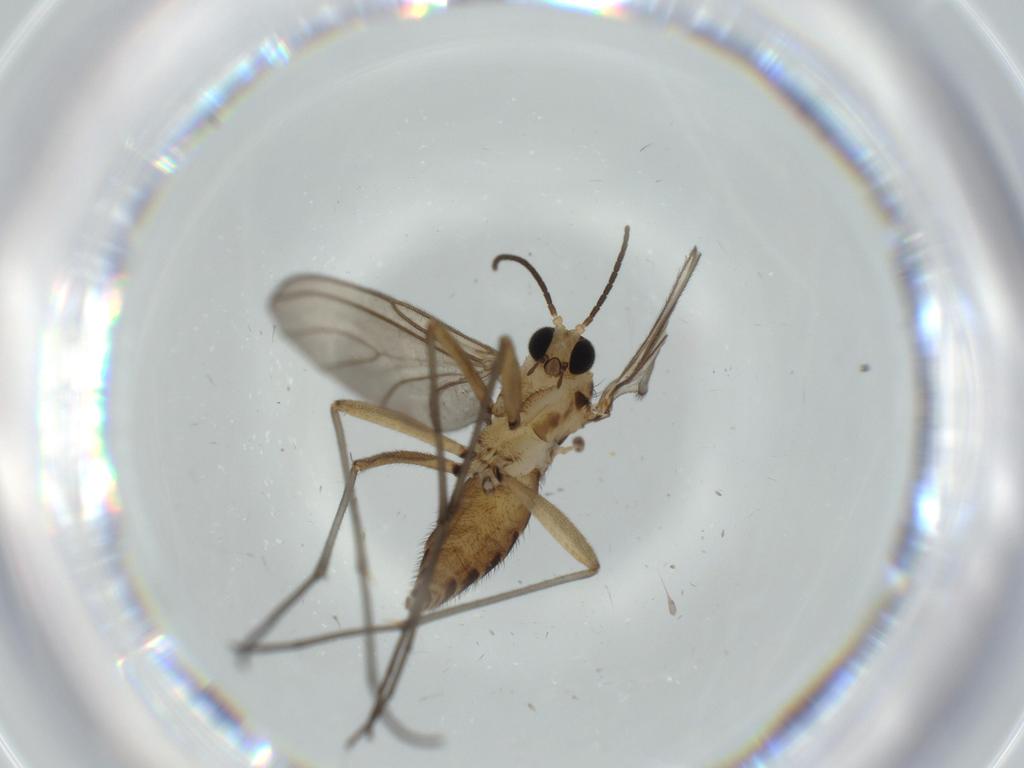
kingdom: Animalia
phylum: Arthropoda
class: Insecta
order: Diptera
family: Sciaridae
